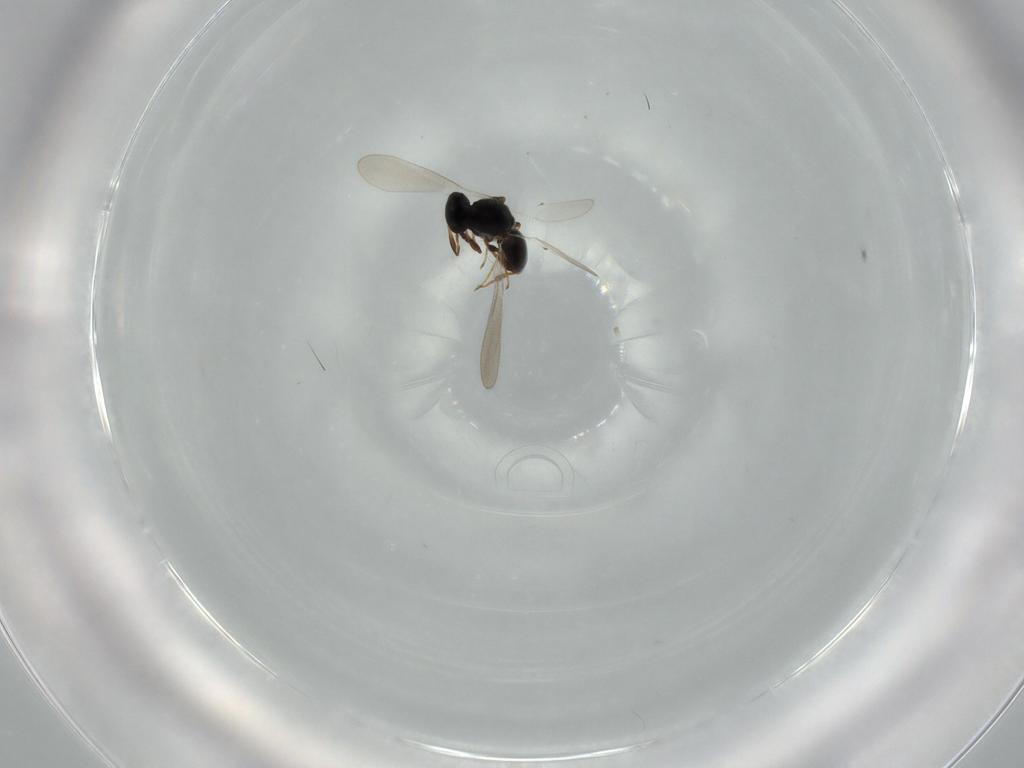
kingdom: Animalia
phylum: Arthropoda
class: Insecta
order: Hymenoptera
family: Platygastridae
